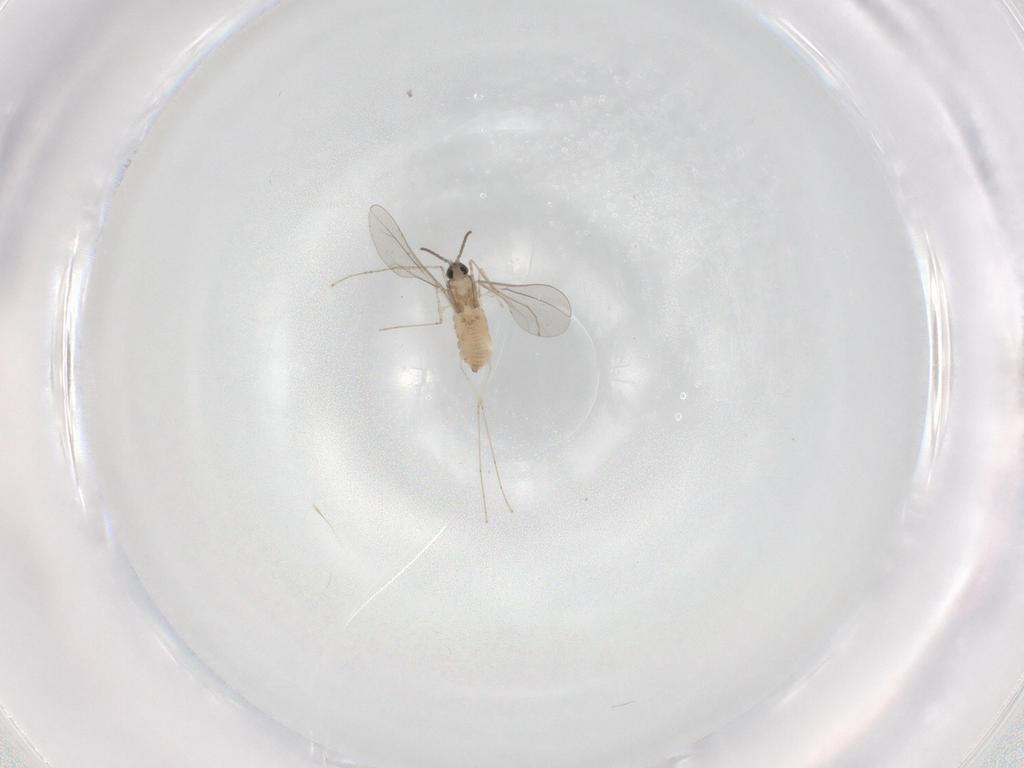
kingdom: Animalia
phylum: Arthropoda
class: Insecta
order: Diptera
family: Cecidomyiidae
